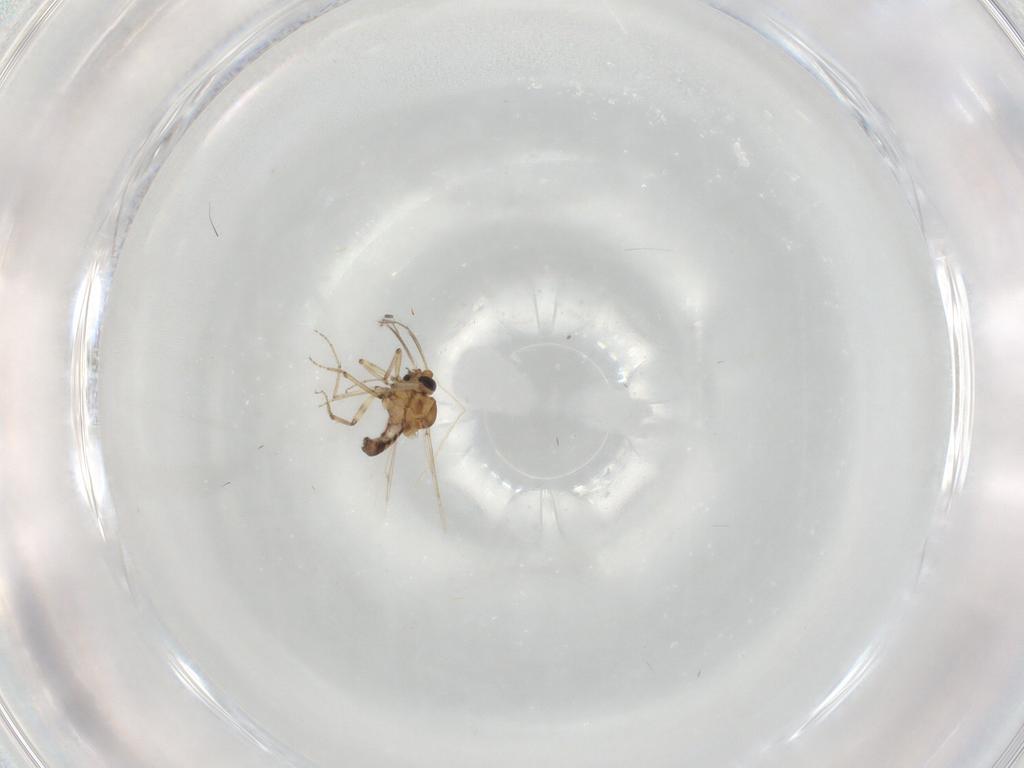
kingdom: Animalia
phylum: Arthropoda
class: Insecta
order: Diptera
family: Ceratopogonidae
